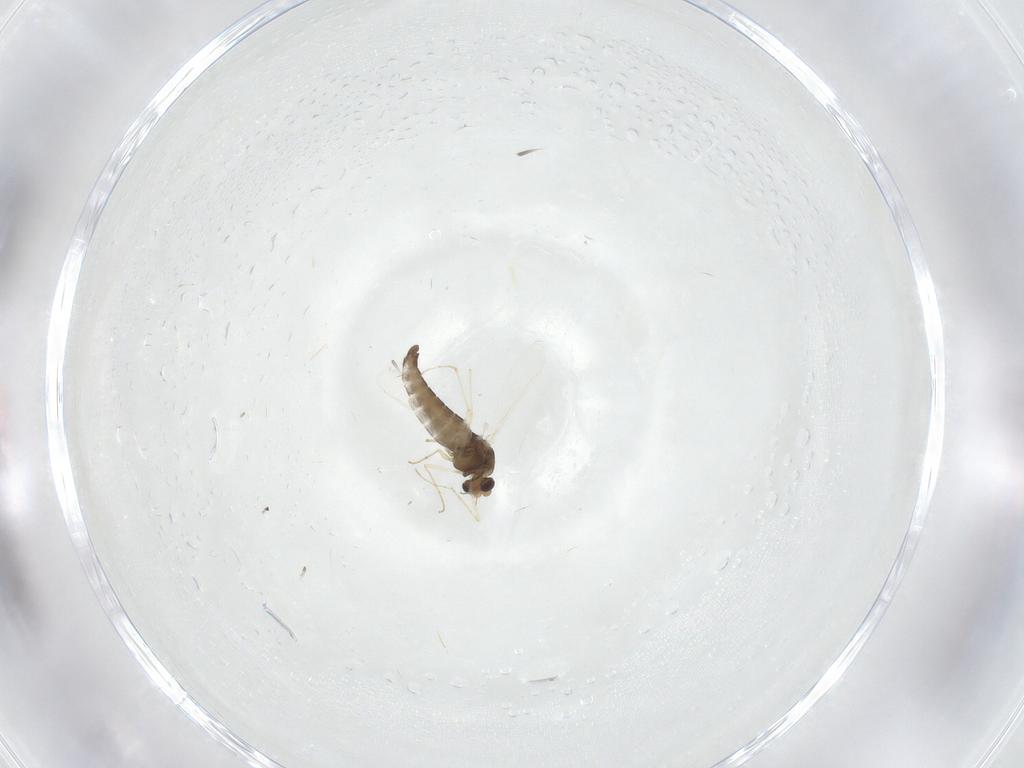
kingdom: Animalia
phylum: Arthropoda
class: Insecta
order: Diptera
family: Chironomidae
